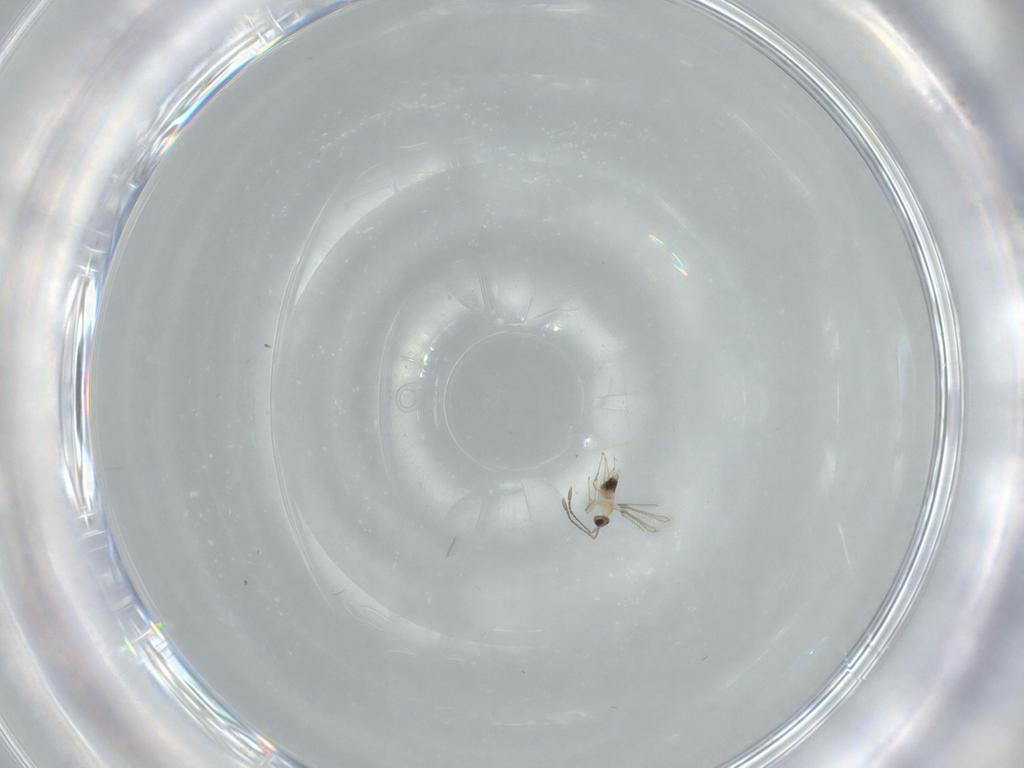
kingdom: Animalia
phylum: Arthropoda
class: Insecta
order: Hymenoptera
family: Mymaridae
